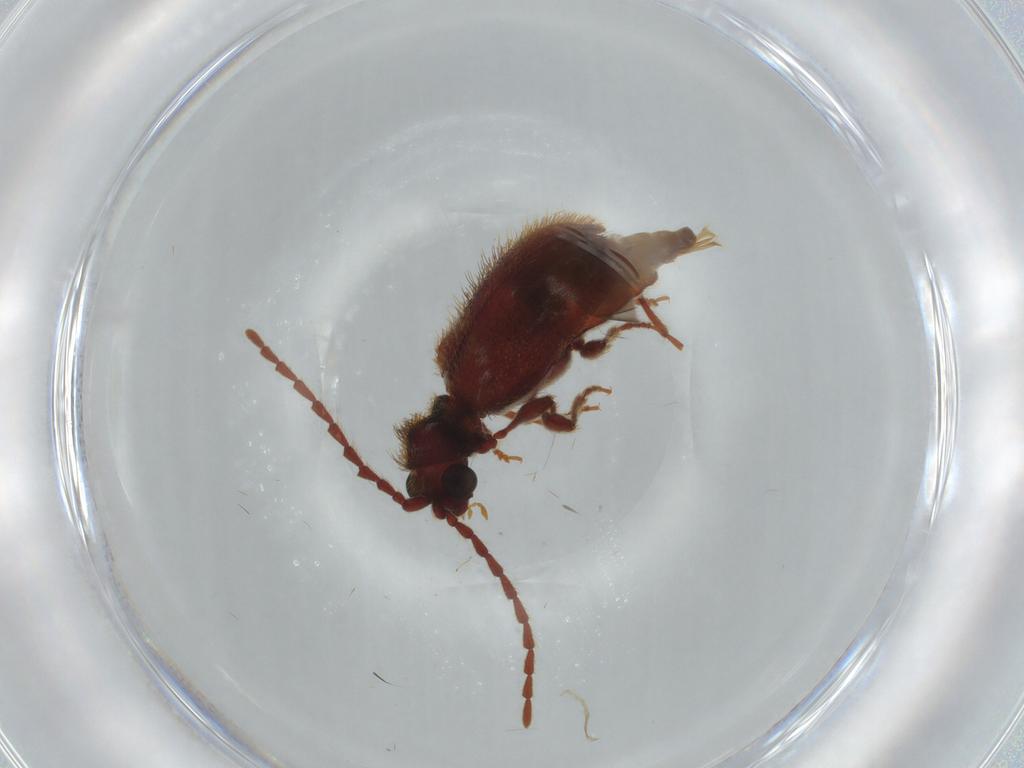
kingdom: Animalia
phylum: Arthropoda
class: Insecta
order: Coleoptera
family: Ptinidae
